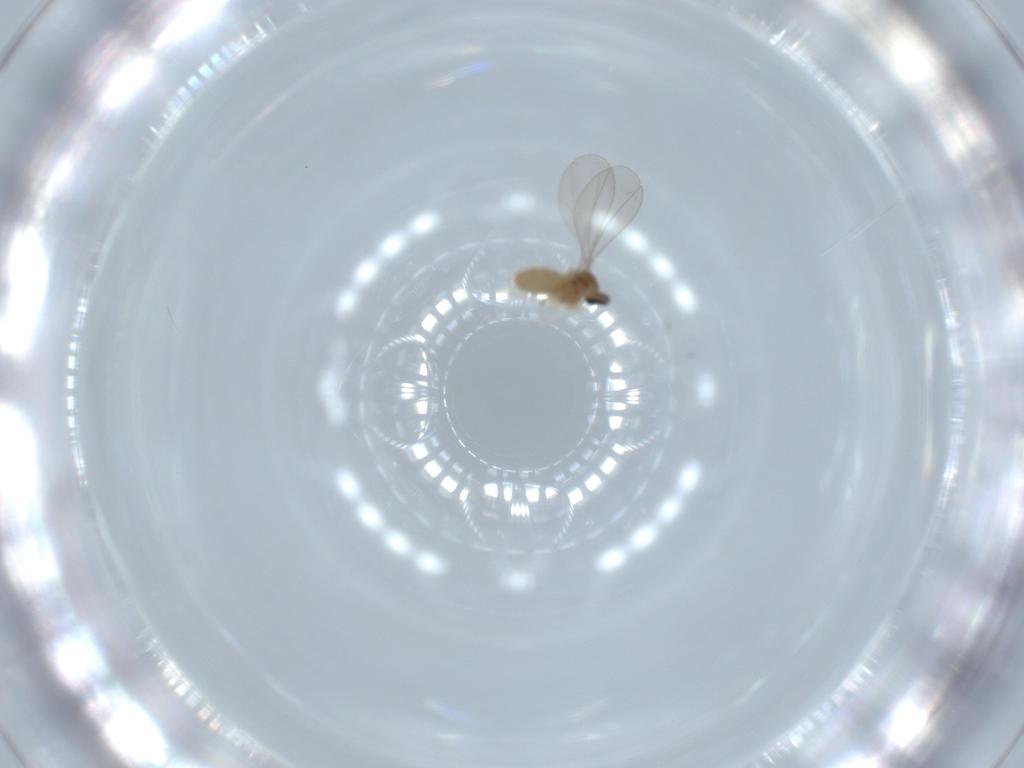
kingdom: Animalia
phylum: Arthropoda
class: Insecta
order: Diptera
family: Cecidomyiidae
